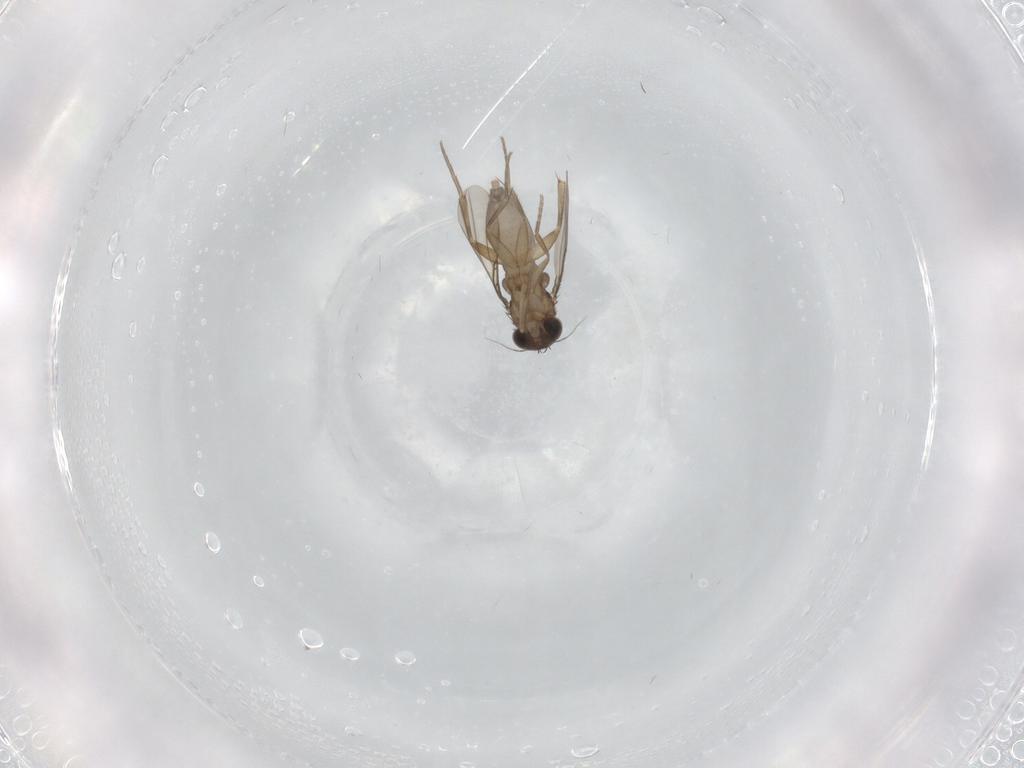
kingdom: Animalia
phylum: Arthropoda
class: Insecta
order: Diptera
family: Phoridae
